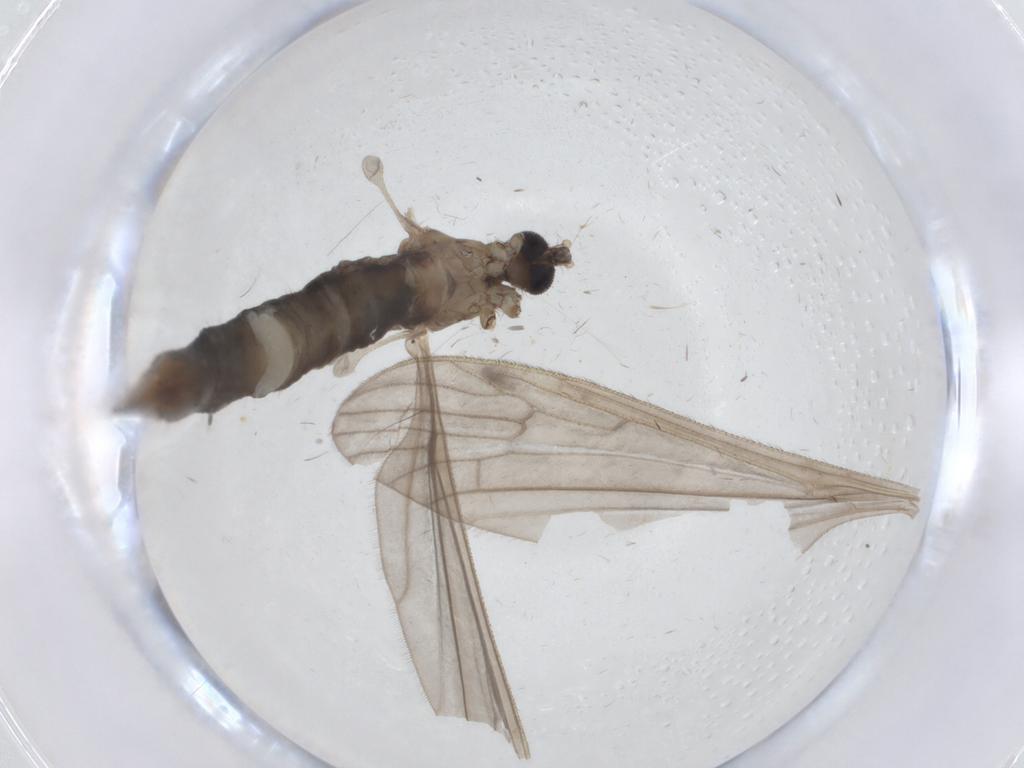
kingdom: Animalia
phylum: Arthropoda
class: Insecta
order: Diptera
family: Limoniidae
